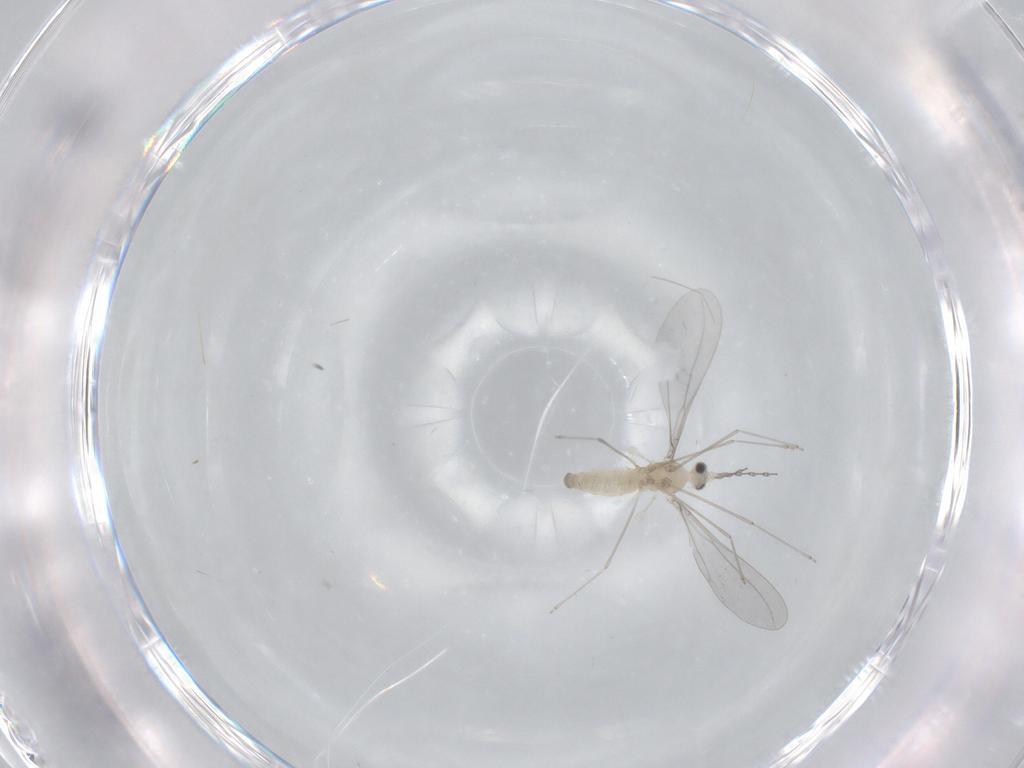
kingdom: Animalia
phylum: Arthropoda
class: Insecta
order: Diptera
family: Cecidomyiidae
